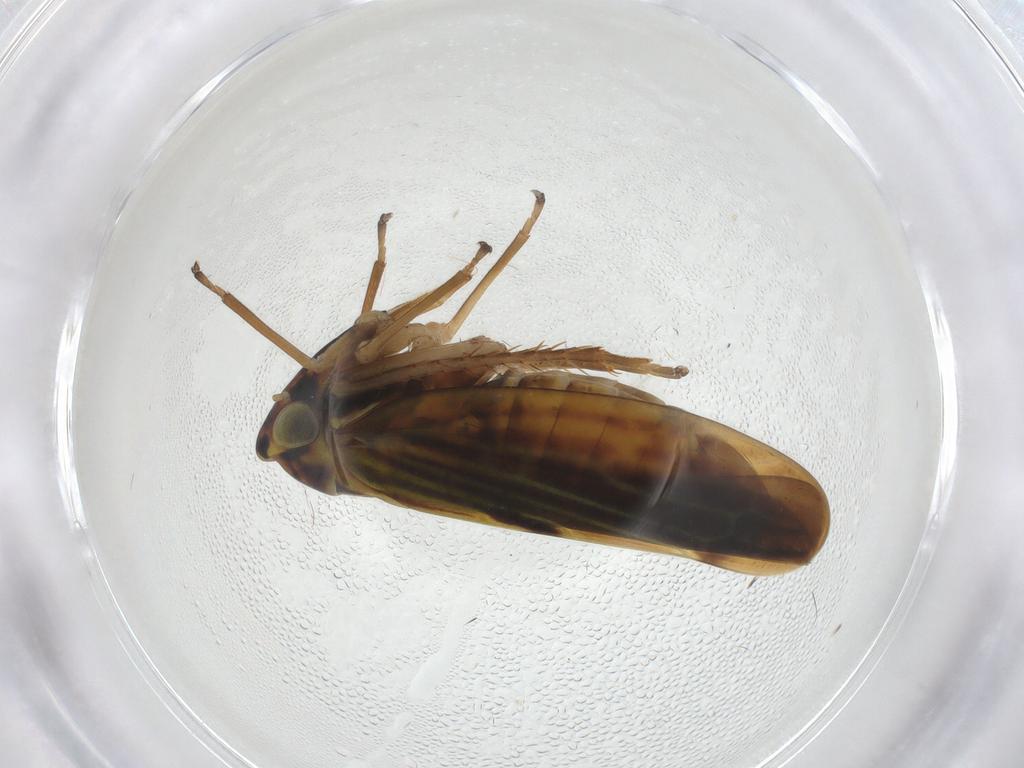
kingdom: Animalia
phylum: Arthropoda
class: Insecta
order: Hemiptera
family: Cicadellidae
